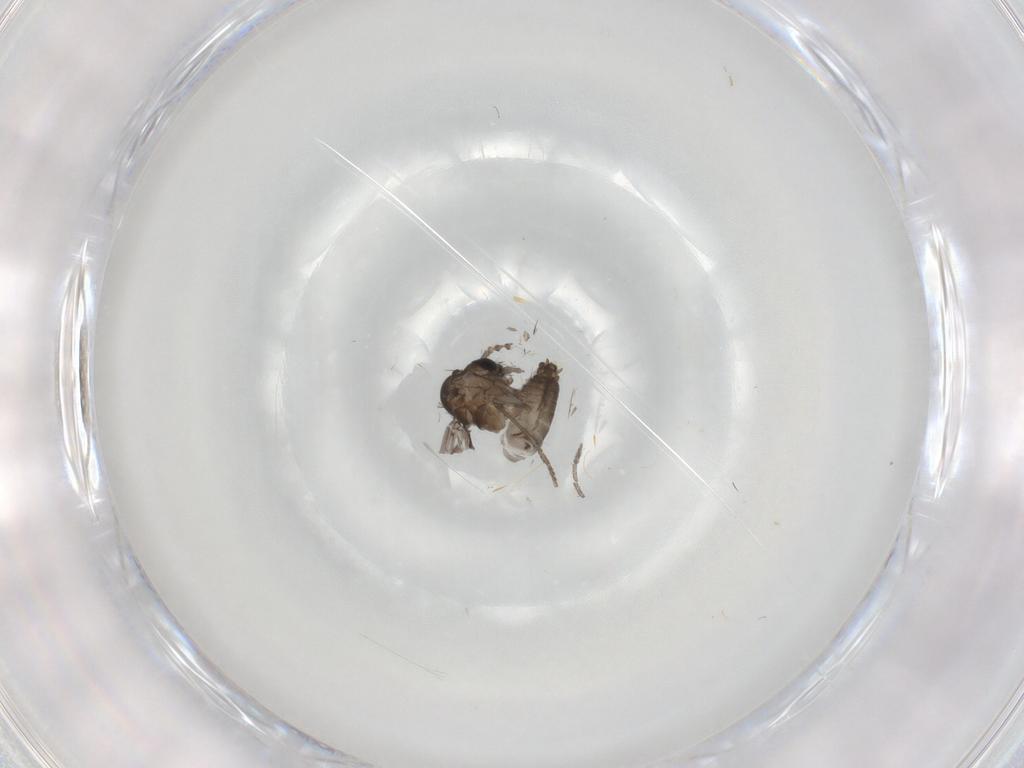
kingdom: Animalia
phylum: Arthropoda
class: Insecta
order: Diptera
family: Psychodidae
